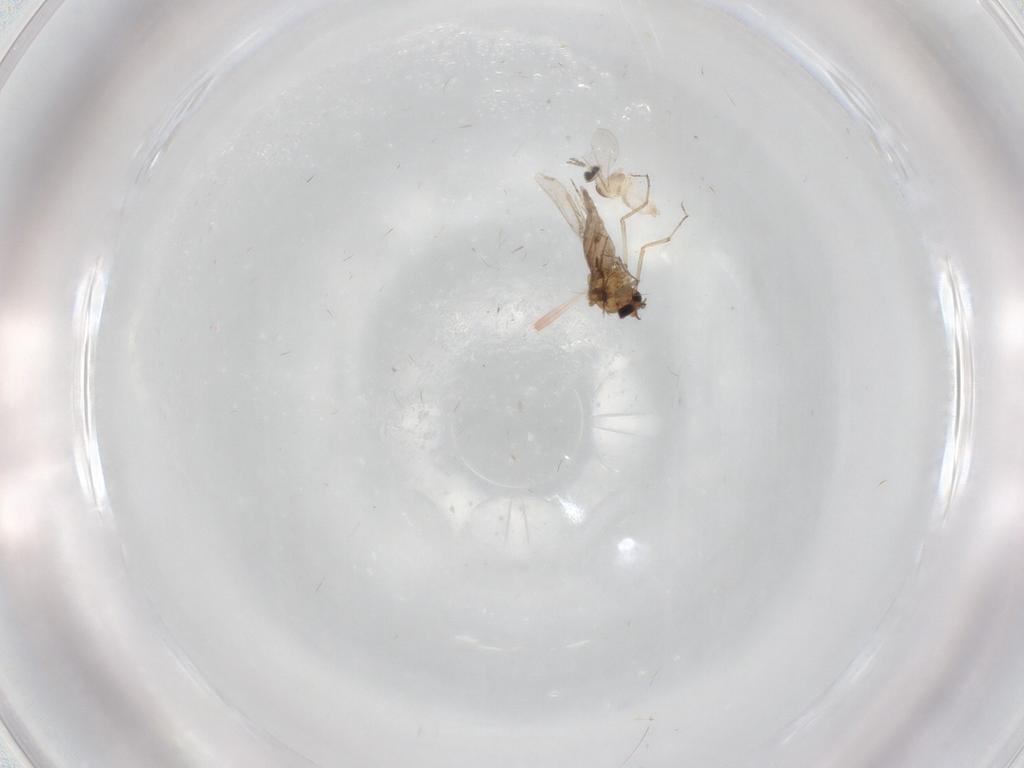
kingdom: Animalia
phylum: Arthropoda
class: Insecta
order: Diptera
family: Cecidomyiidae
